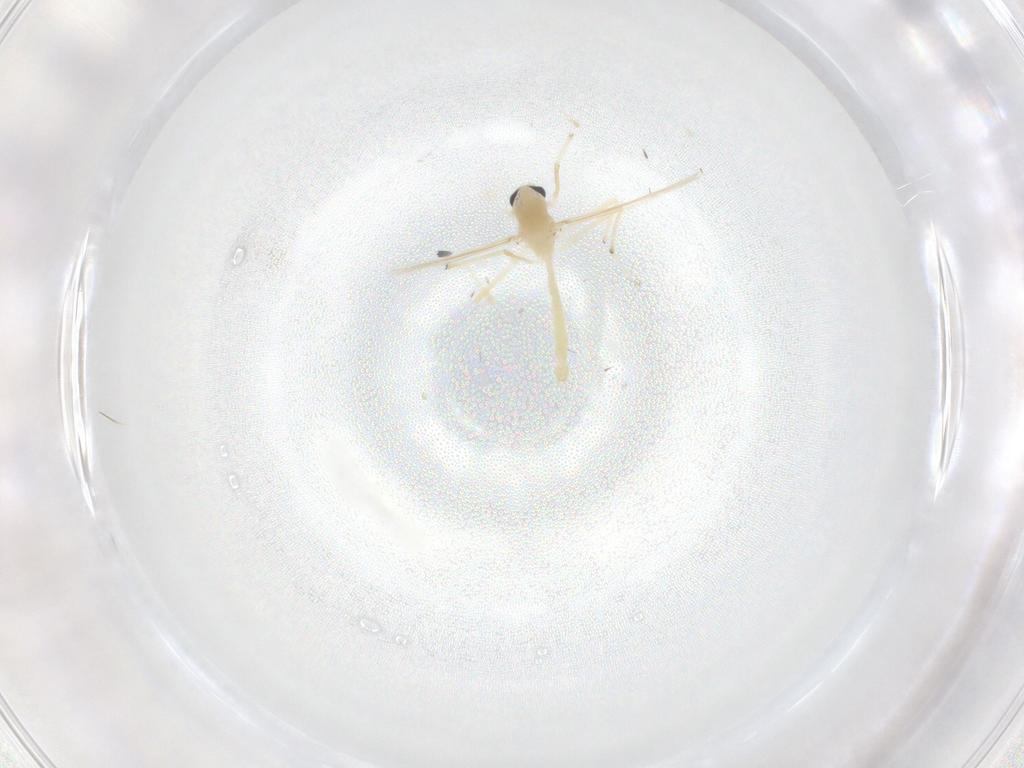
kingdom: Animalia
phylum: Arthropoda
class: Insecta
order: Diptera
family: Chironomidae
